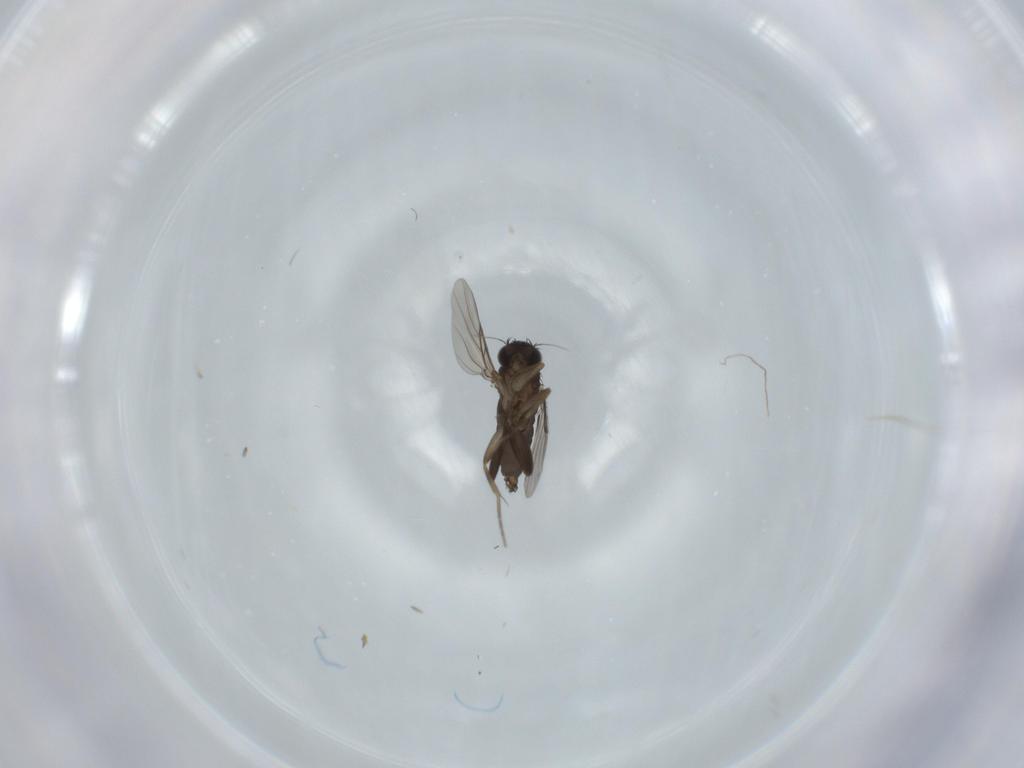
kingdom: Animalia
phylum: Arthropoda
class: Insecta
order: Diptera
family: Phoridae
